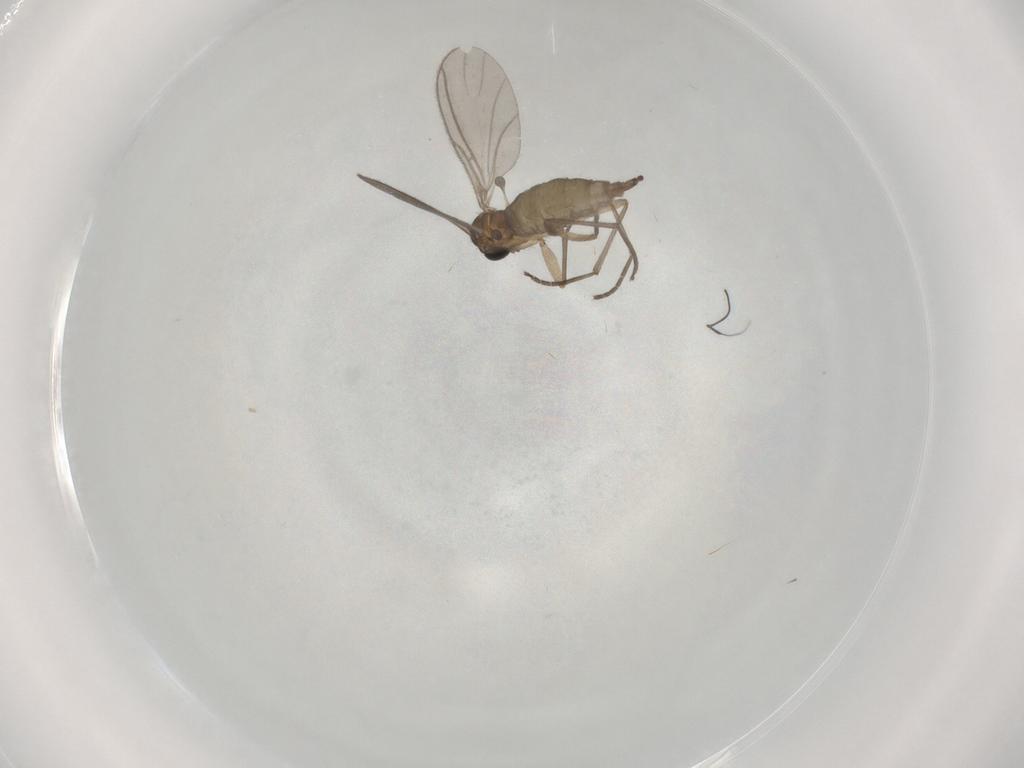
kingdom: Animalia
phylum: Arthropoda
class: Insecta
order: Diptera
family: Sciaridae
